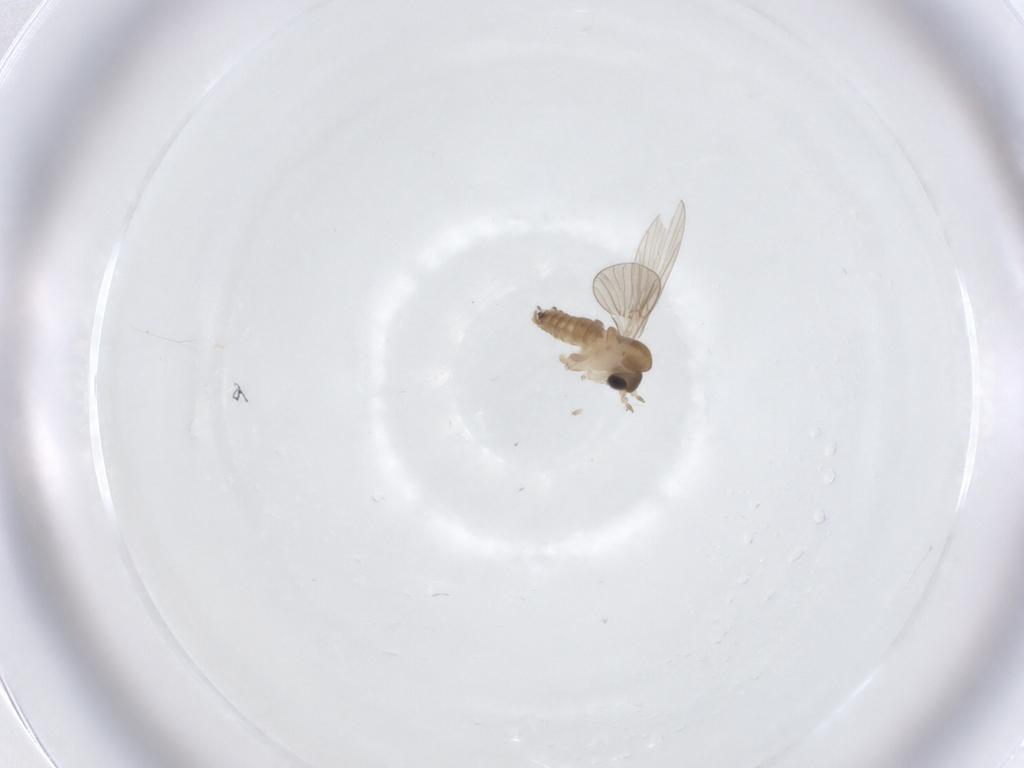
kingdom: Animalia
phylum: Arthropoda
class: Insecta
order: Diptera
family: Chironomidae
